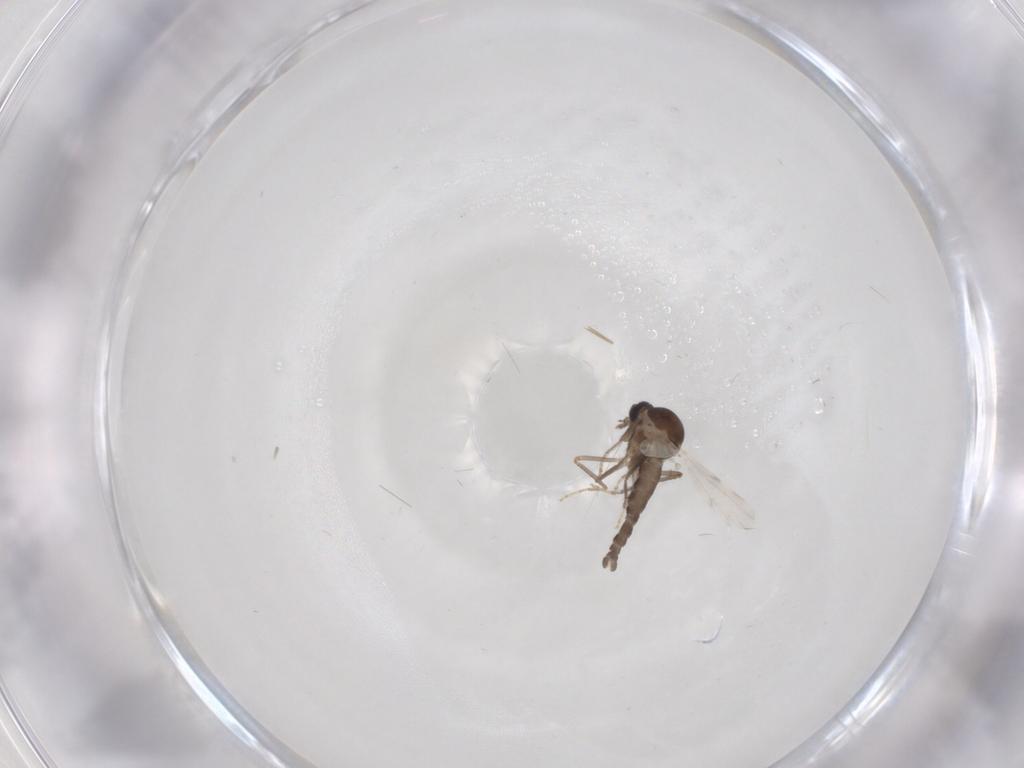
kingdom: Animalia
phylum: Arthropoda
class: Insecta
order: Diptera
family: Ceratopogonidae
